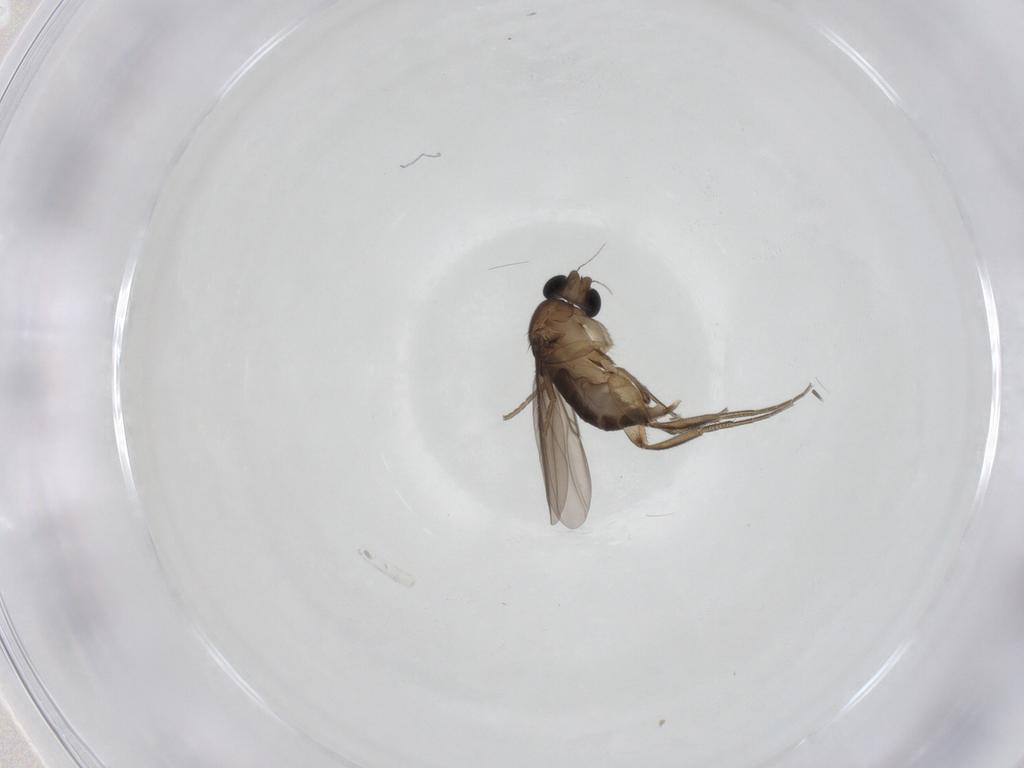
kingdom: Animalia
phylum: Arthropoda
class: Insecta
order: Diptera
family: Phoridae
